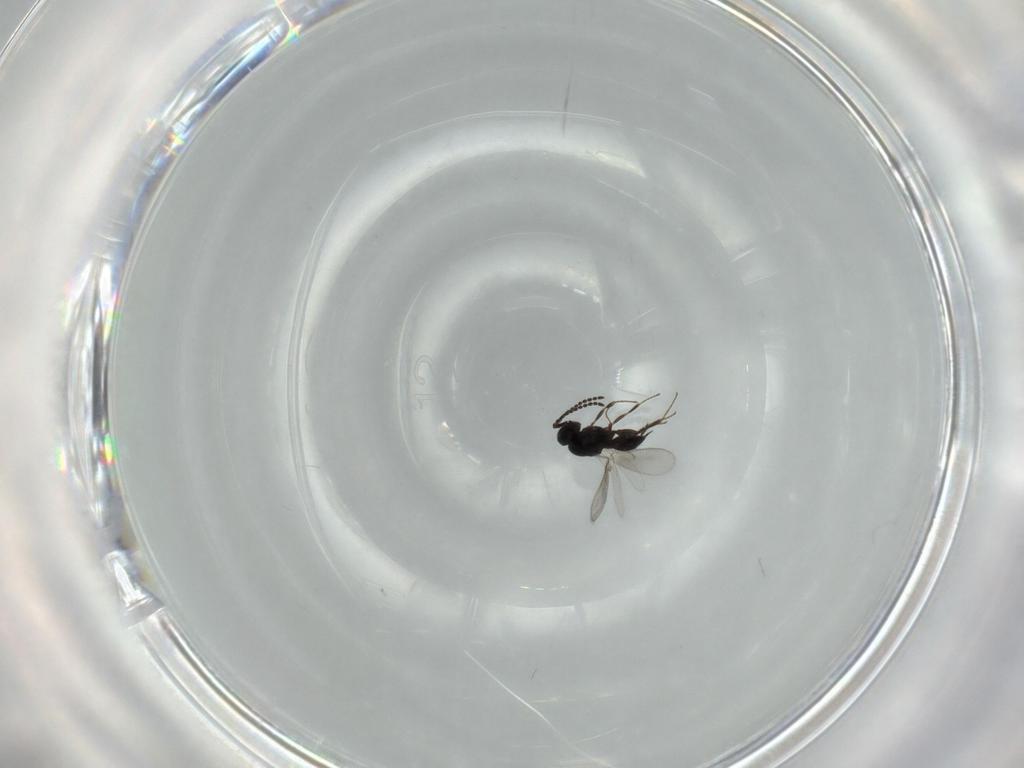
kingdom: Animalia
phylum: Arthropoda
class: Insecta
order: Hymenoptera
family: Scelionidae
